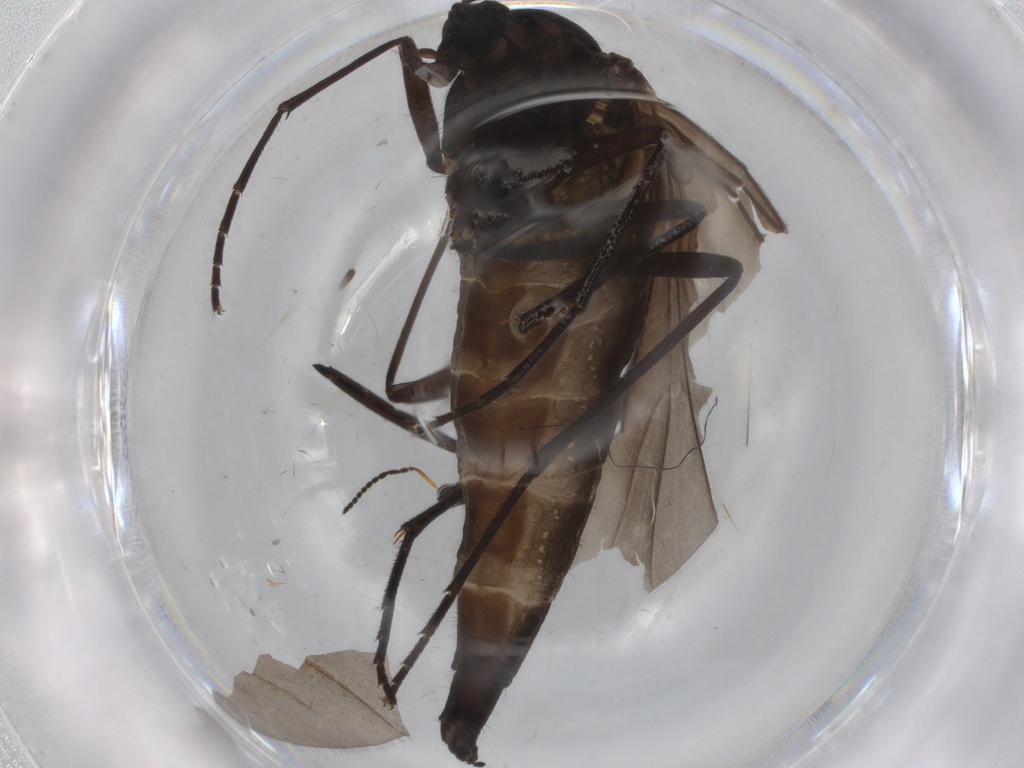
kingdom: Animalia
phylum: Arthropoda
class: Insecta
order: Diptera
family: Sciaridae
